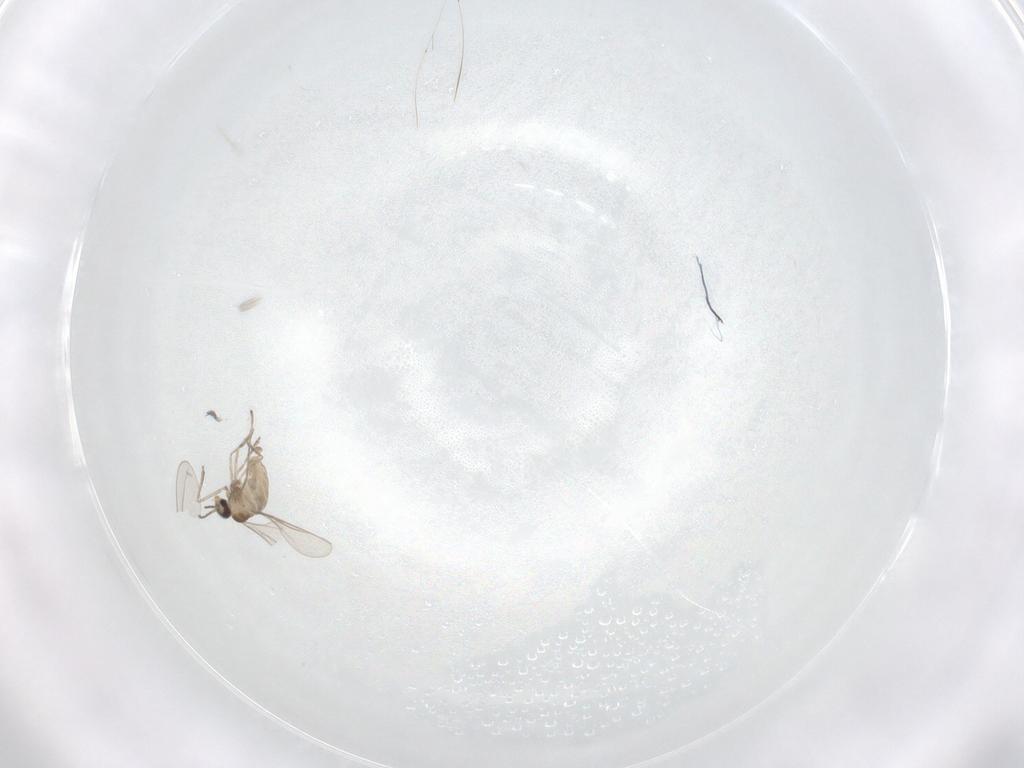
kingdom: Animalia
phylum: Arthropoda
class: Insecta
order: Diptera
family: Cecidomyiidae
